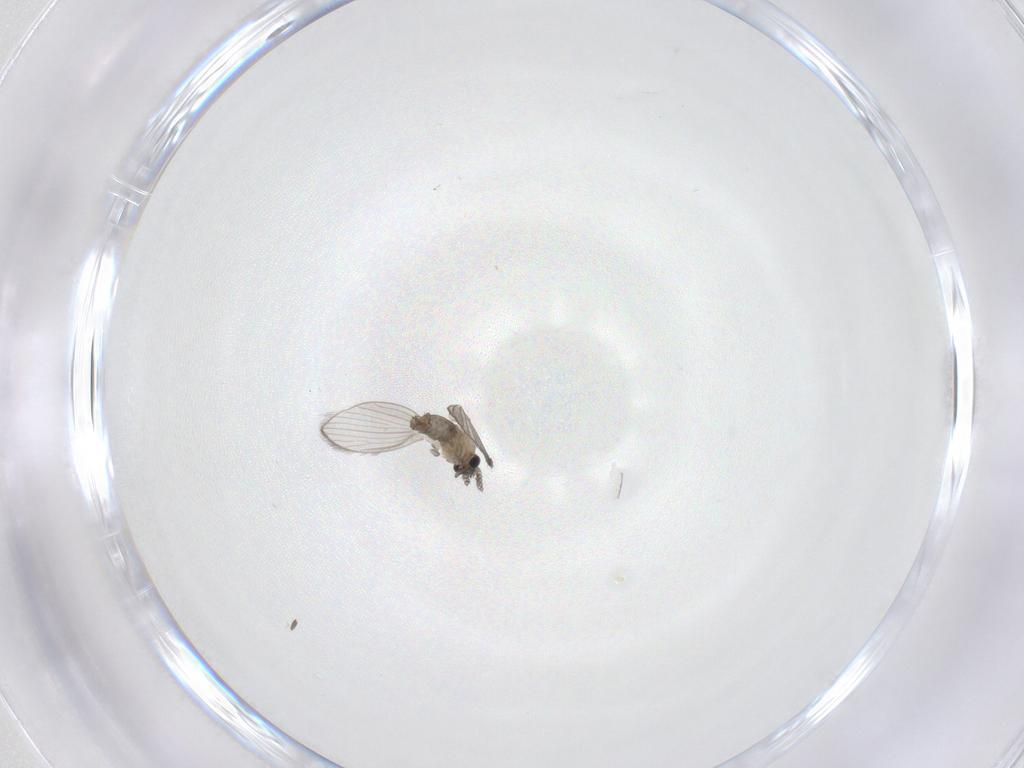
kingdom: Animalia
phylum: Arthropoda
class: Insecta
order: Diptera
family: Psychodidae
